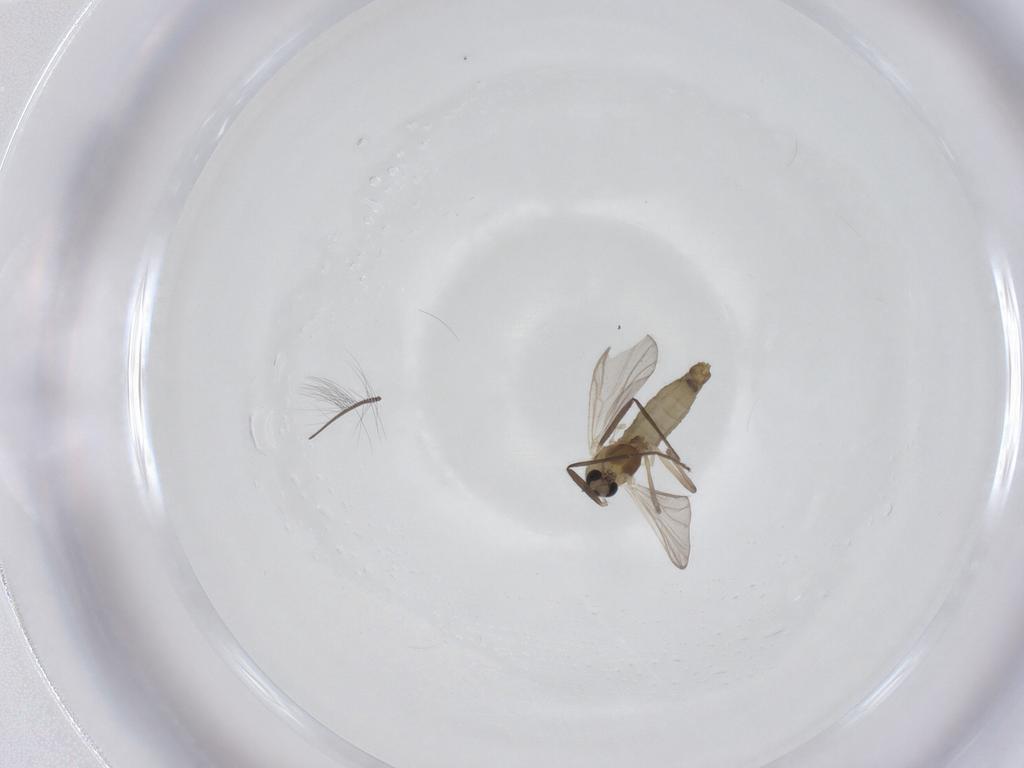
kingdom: Animalia
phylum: Arthropoda
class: Insecta
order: Diptera
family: Chironomidae
